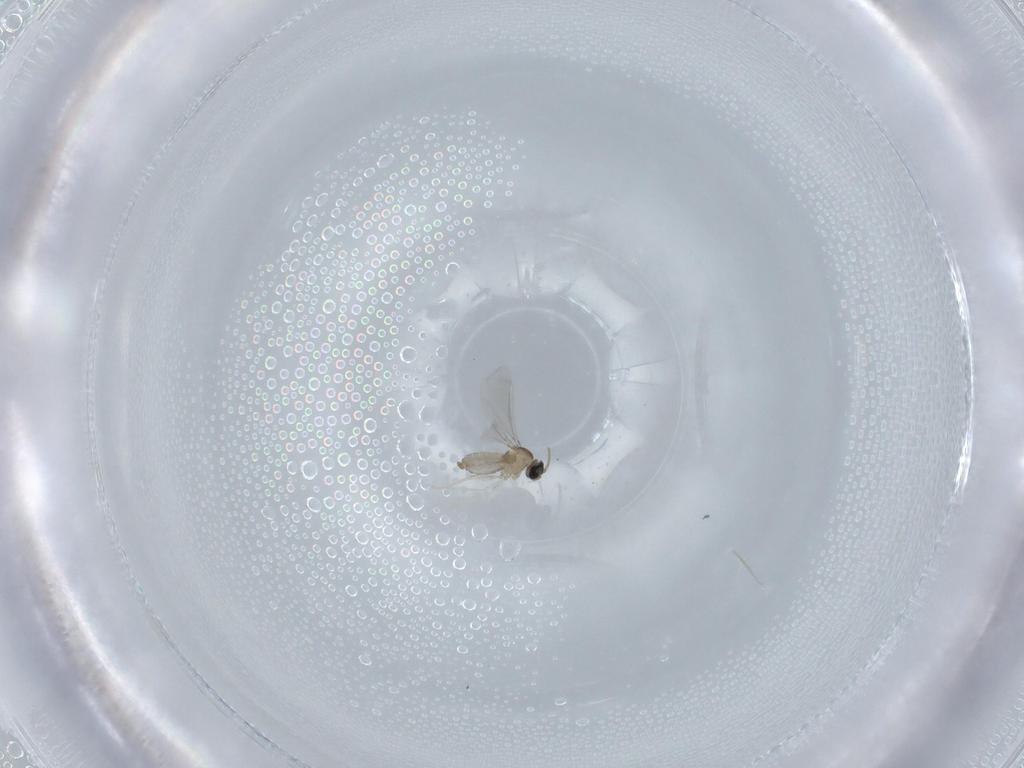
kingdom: Animalia
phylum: Arthropoda
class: Insecta
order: Diptera
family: Cecidomyiidae
